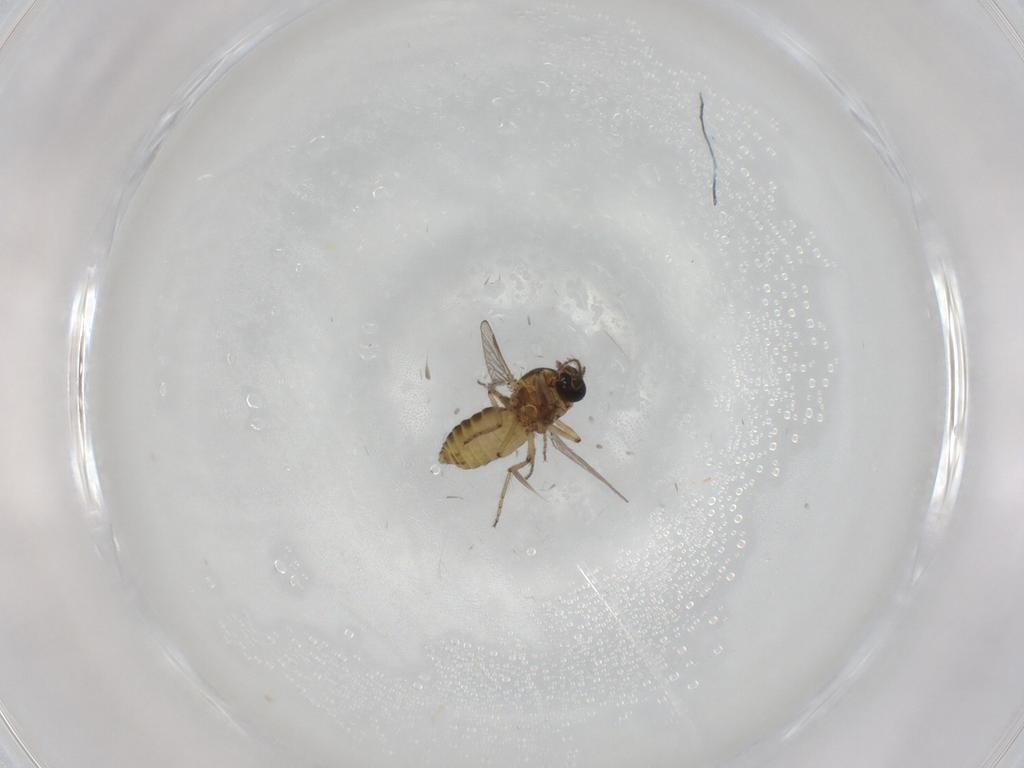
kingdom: Animalia
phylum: Arthropoda
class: Insecta
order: Diptera
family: Ceratopogonidae
